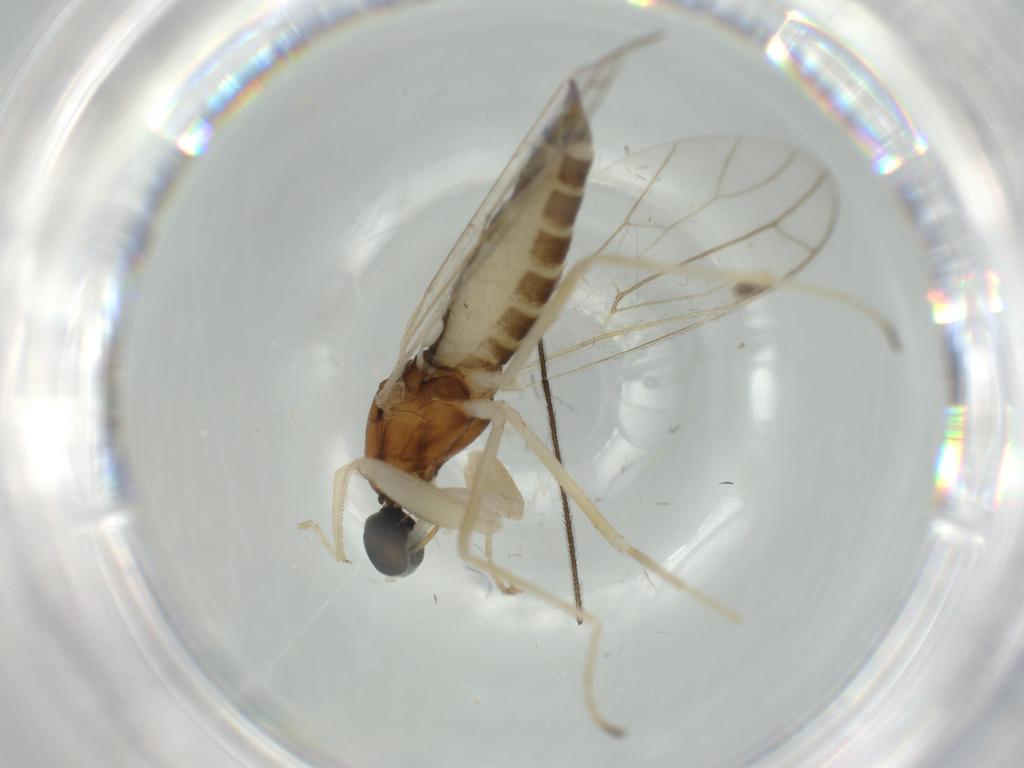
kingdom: Animalia
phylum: Arthropoda
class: Insecta
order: Diptera
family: Empididae
